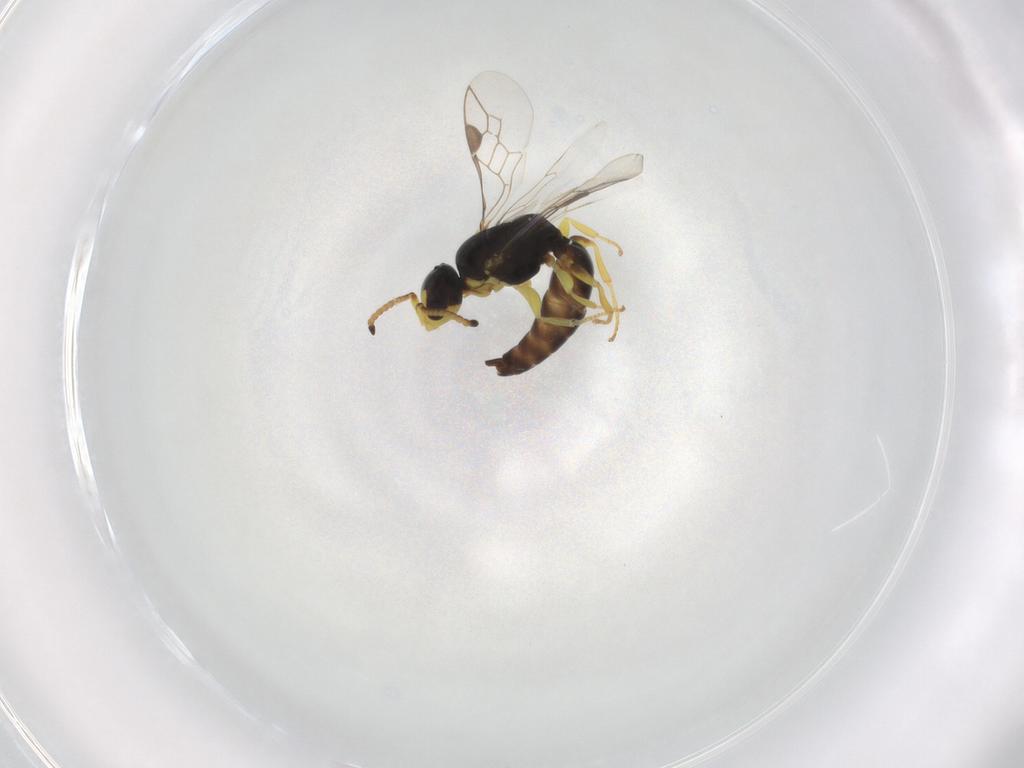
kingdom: Animalia
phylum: Arthropoda
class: Insecta
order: Hymenoptera
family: Pemphredonidae
